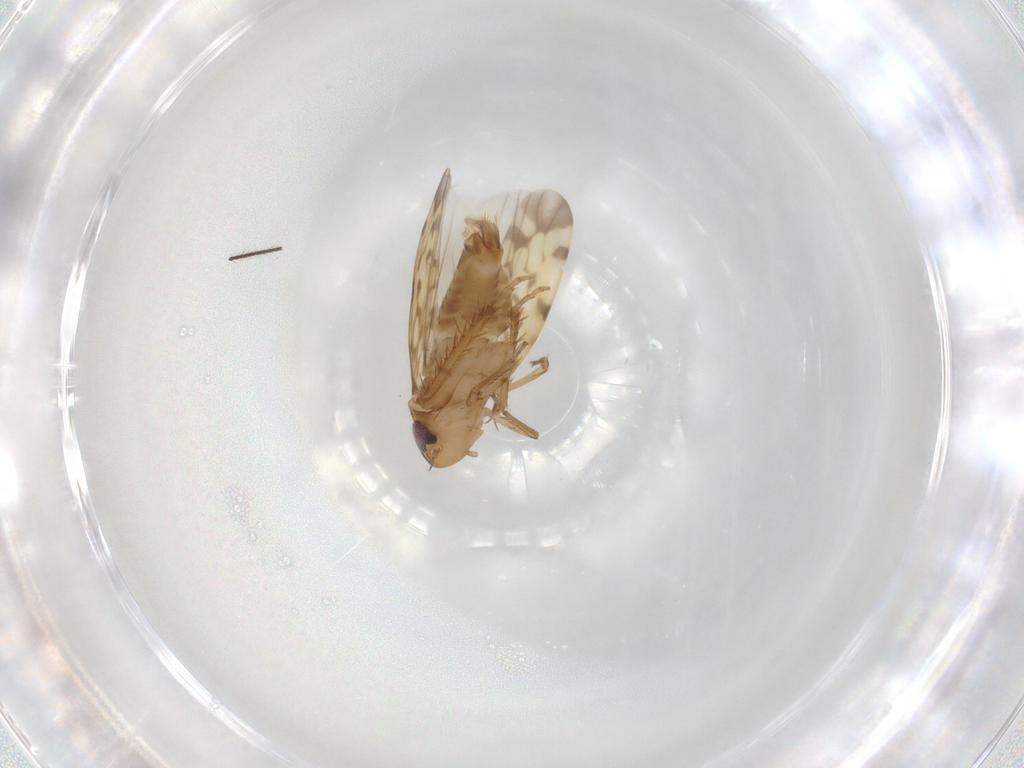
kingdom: Animalia
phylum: Arthropoda
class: Insecta
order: Hemiptera
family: Cicadellidae
